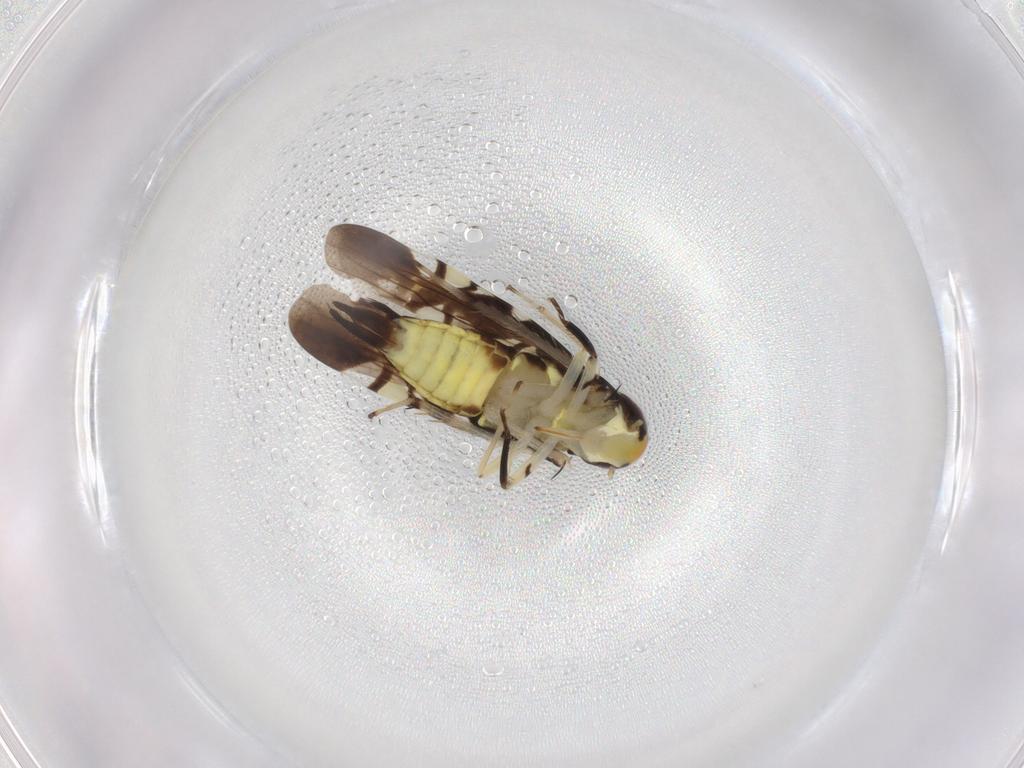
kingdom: Animalia
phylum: Arthropoda
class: Insecta
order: Hemiptera
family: Cicadellidae
